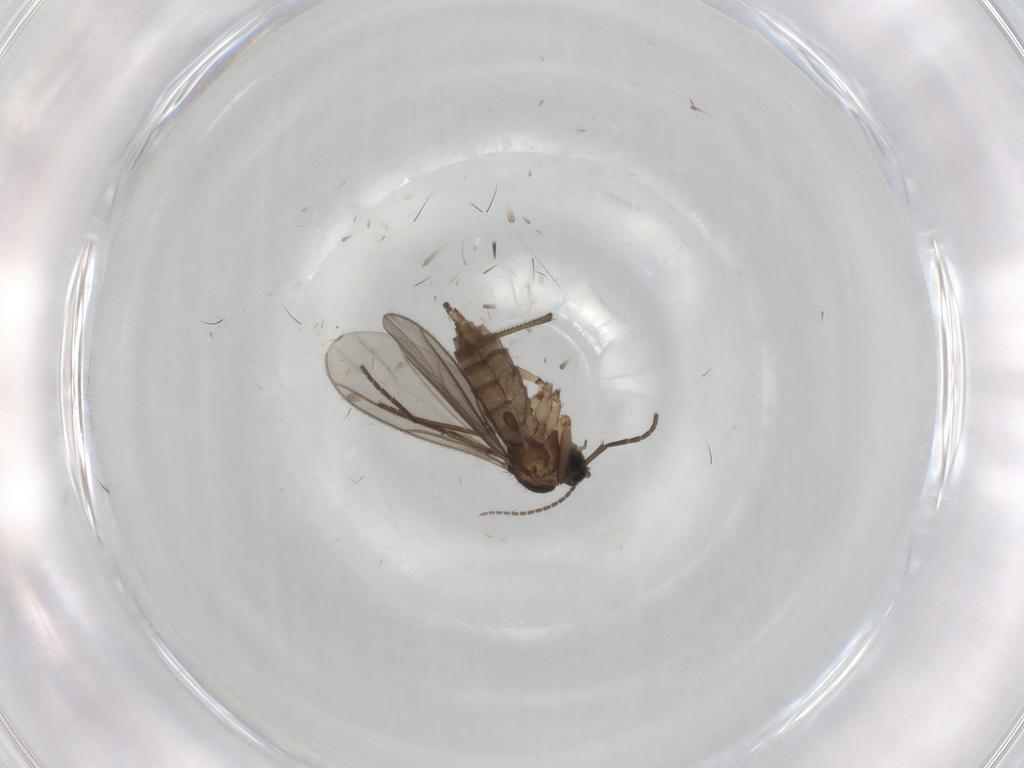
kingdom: Animalia
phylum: Arthropoda
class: Insecta
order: Diptera
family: Sciaridae
